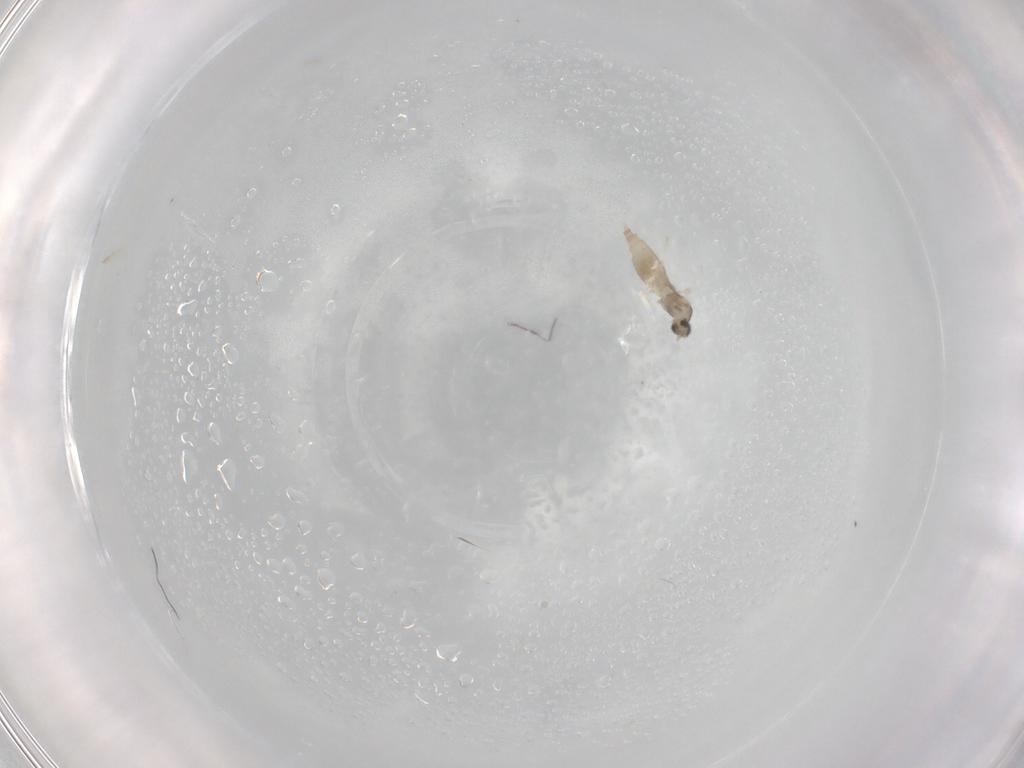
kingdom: Animalia
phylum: Arthropoda
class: Insecta
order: Diptera
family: Cecidomyiidae
